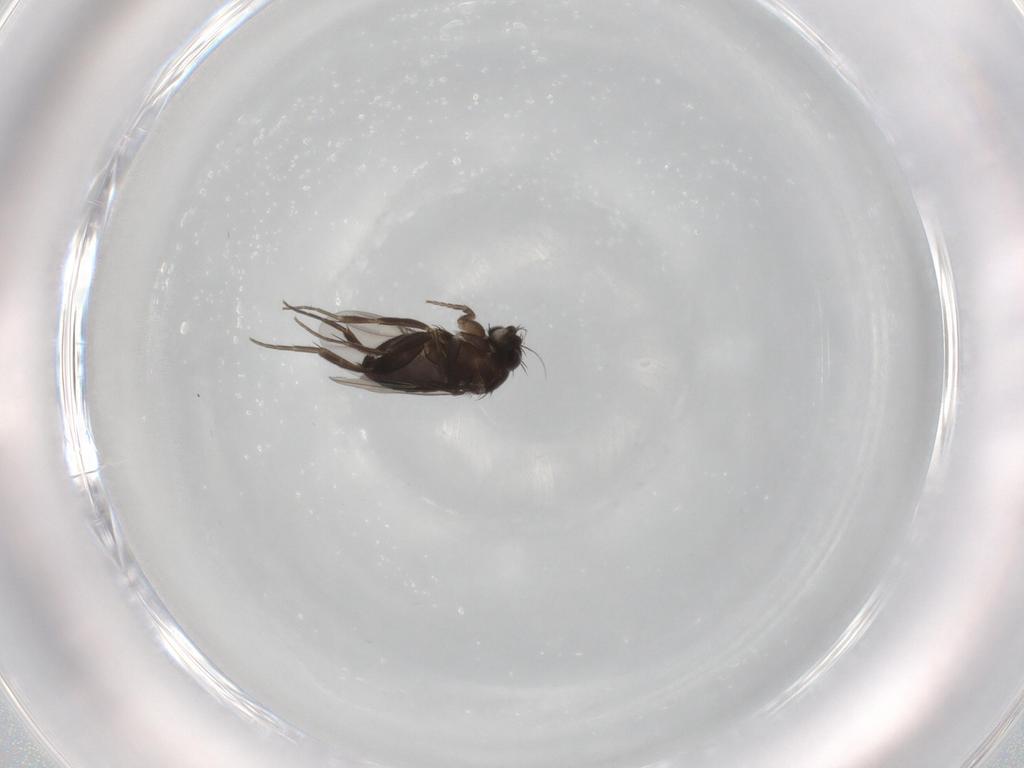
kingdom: Animalia
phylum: Arthropoda
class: Insecta
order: Diptera
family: Phoridae
